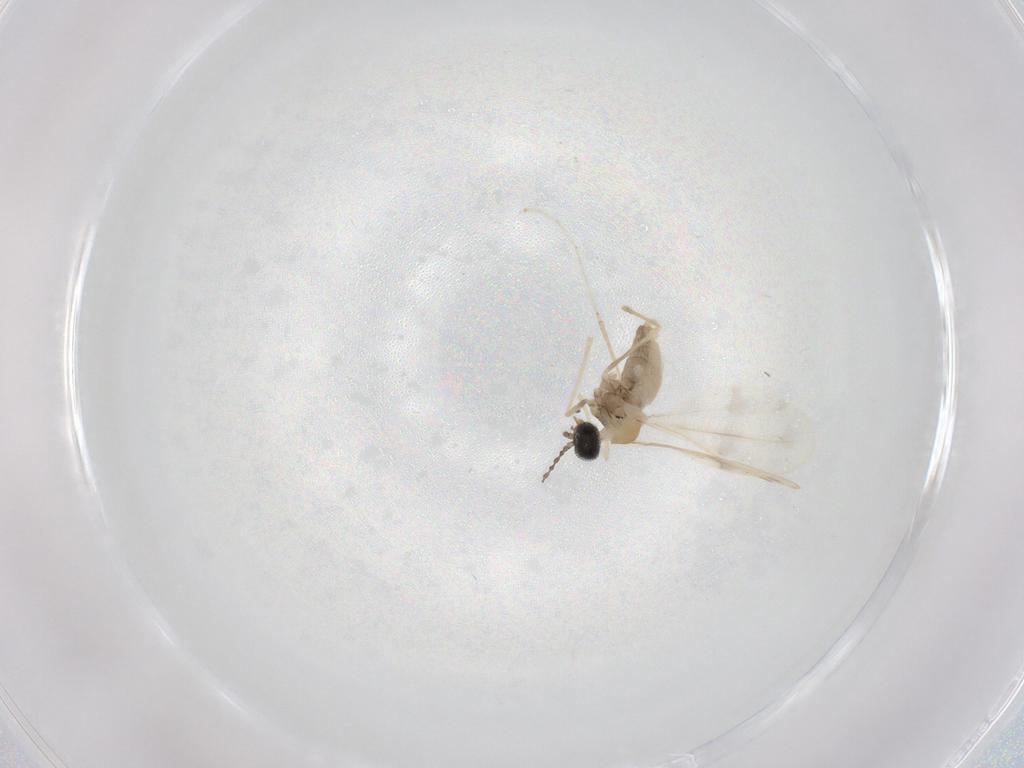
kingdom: Animalia
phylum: Arthropoda
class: Insecta
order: Diptera
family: Cecidomyiidae
